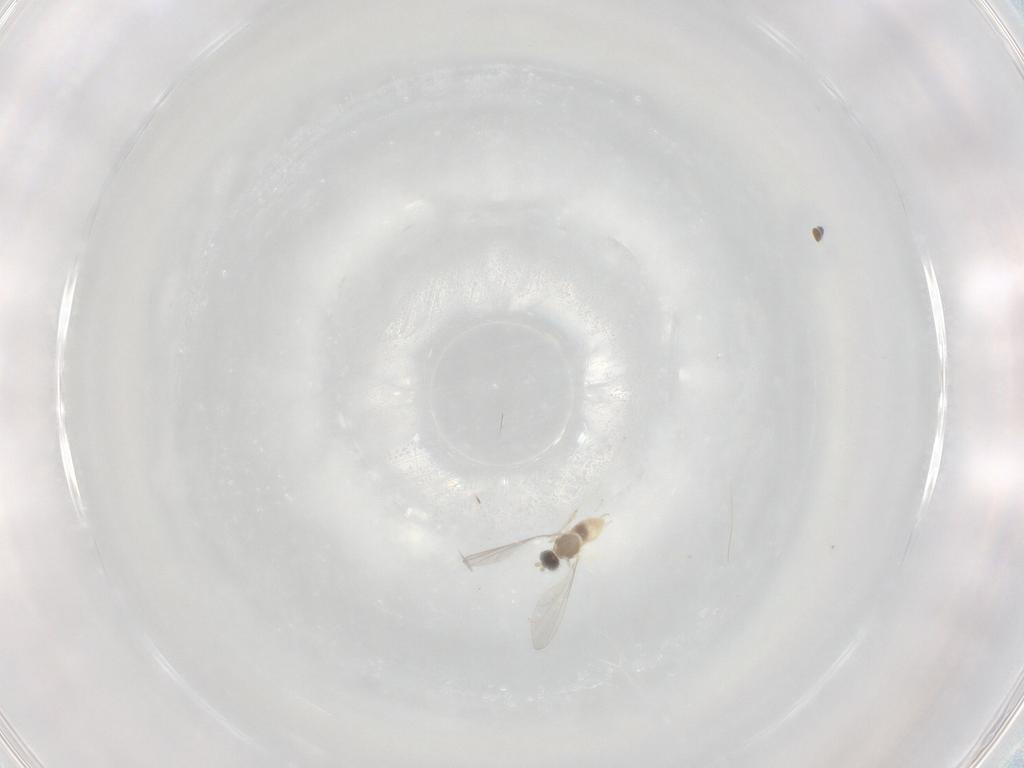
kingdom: Animalia
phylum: Arthropoda
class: Insecta
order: Diptera
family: Cecidomyiidae
